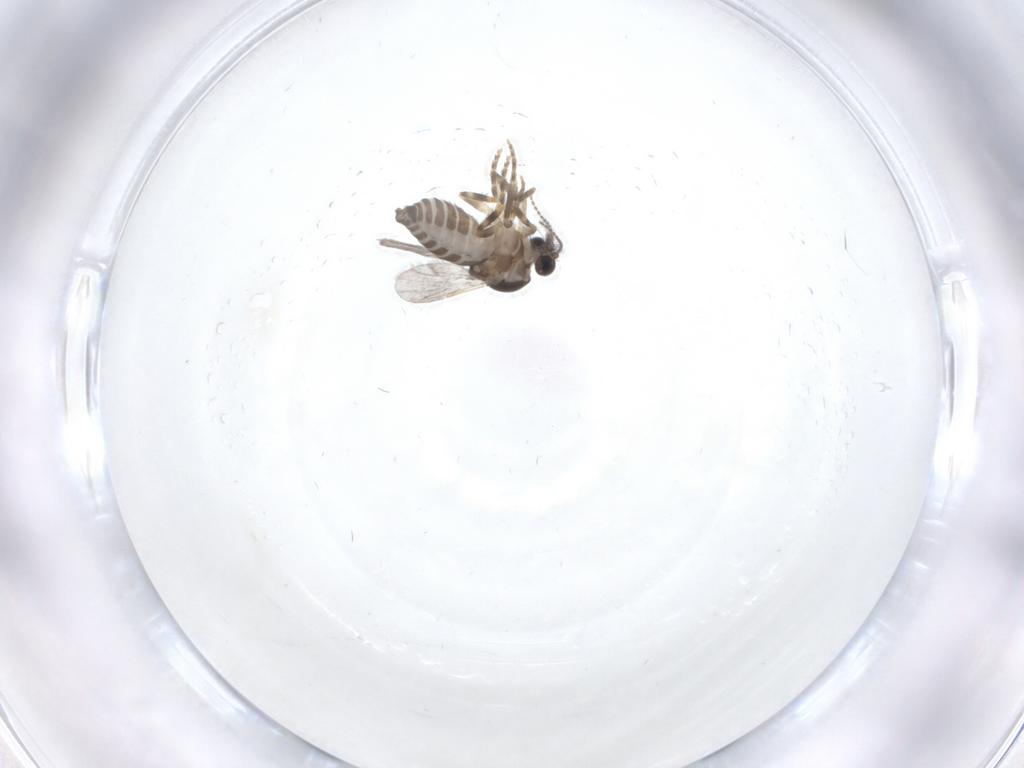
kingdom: Animalia
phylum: Arthropoda
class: Insecta
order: Diptera
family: Ceratopogonidae
